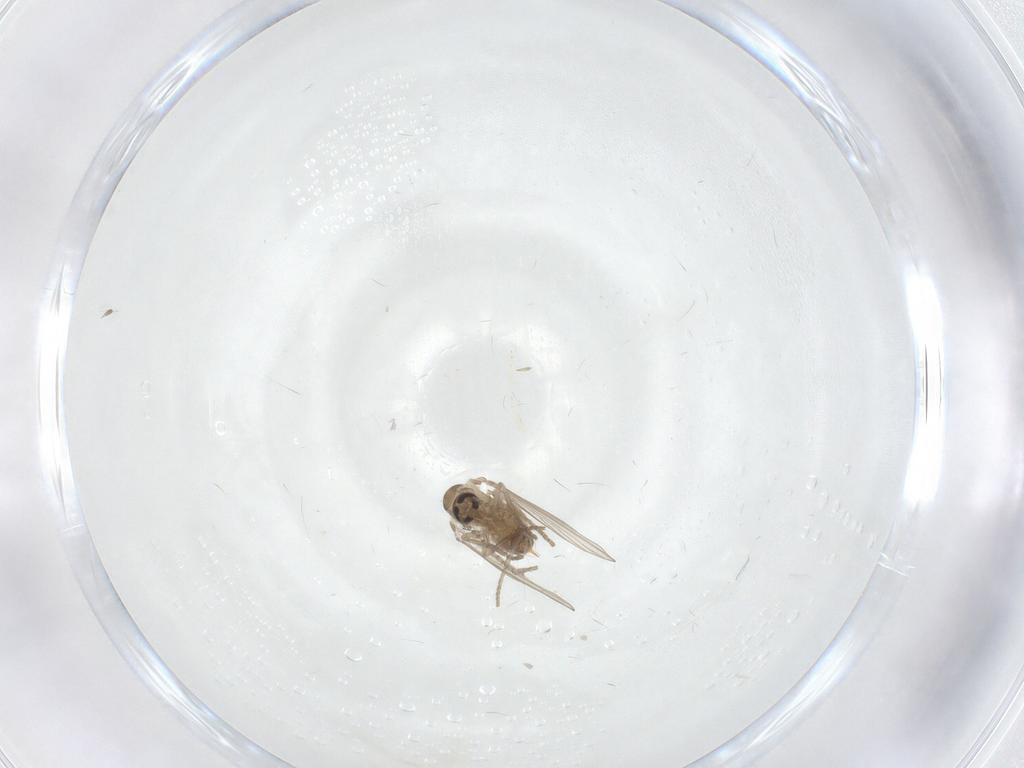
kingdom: Animalia
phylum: Arthropoda
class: Insecta
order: Diptera
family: Psychodidae
